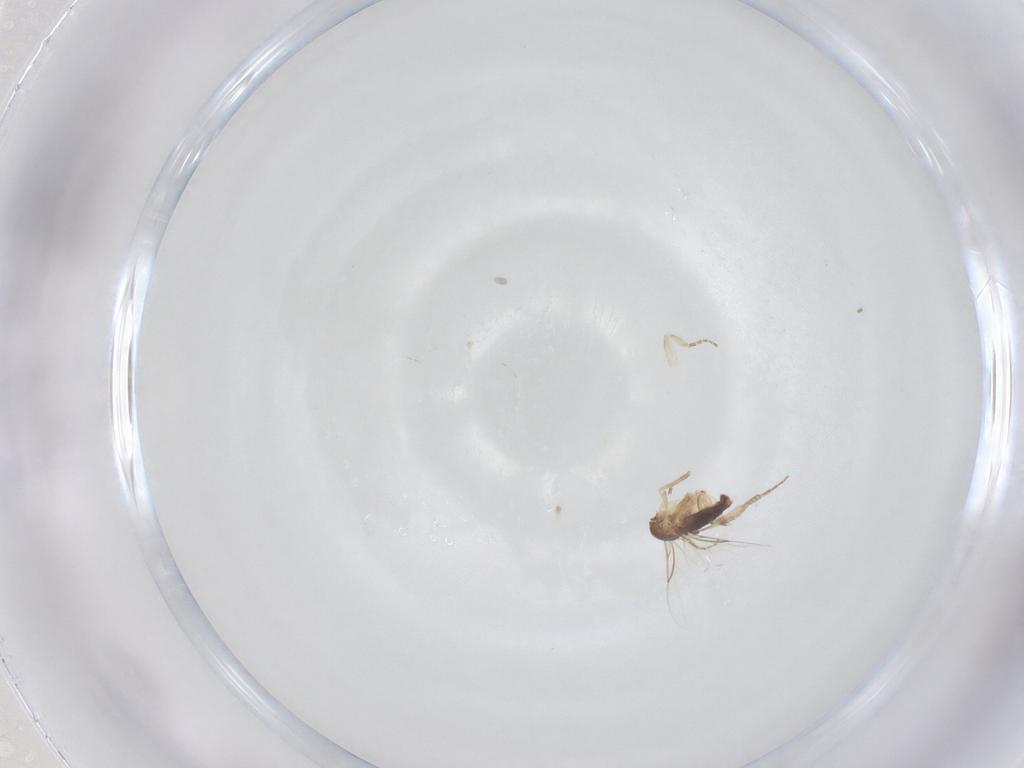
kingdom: Animalia
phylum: Arthropoda
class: Insecta
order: Diptera
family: Phoridae
